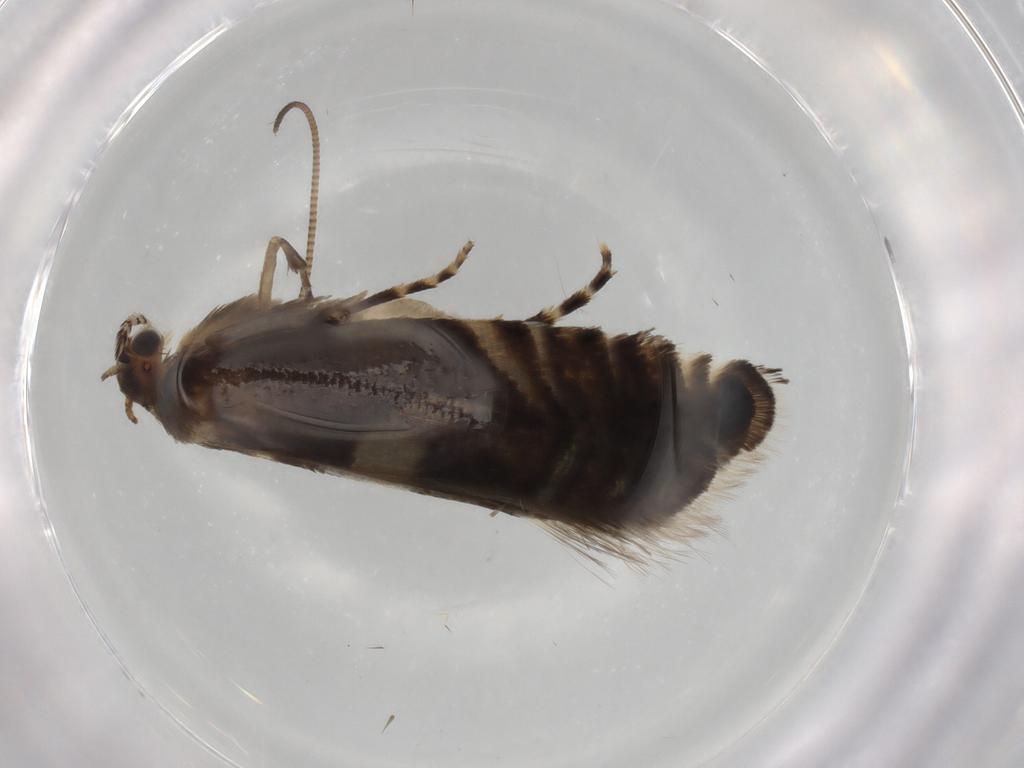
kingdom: Animalia
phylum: Arthropoda
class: Insecta
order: Lepidoptera
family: Glyphipterigidae
